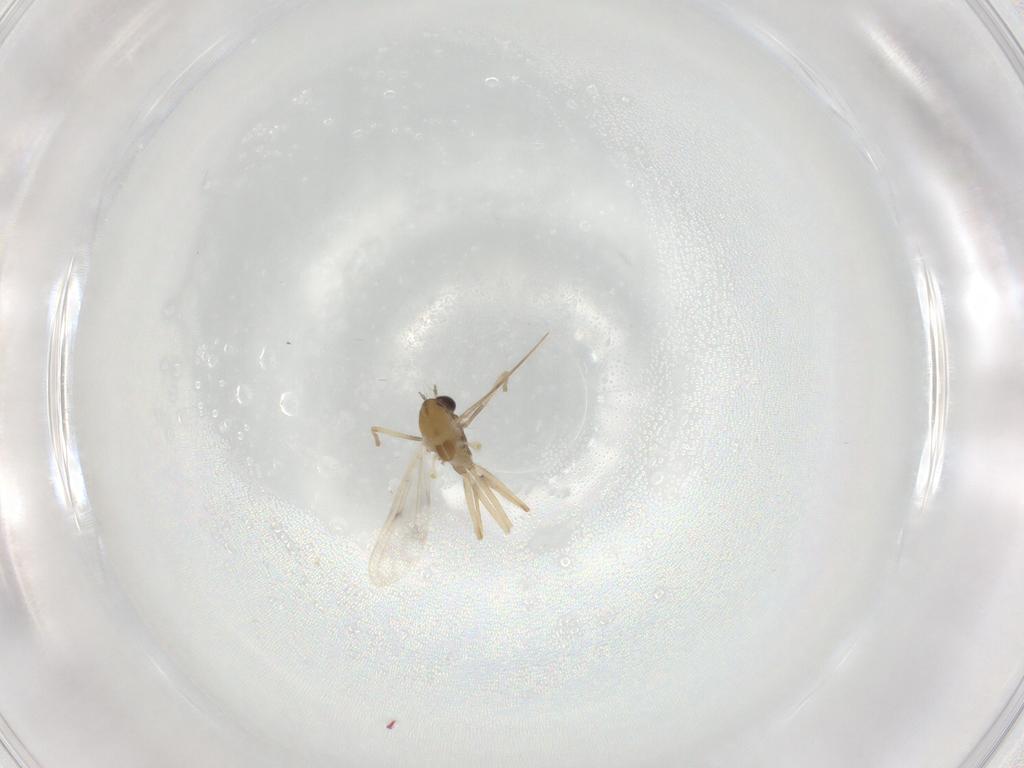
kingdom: Animalia
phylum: Arthropoda
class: Insecta
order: Diptera
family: Chironomidae
